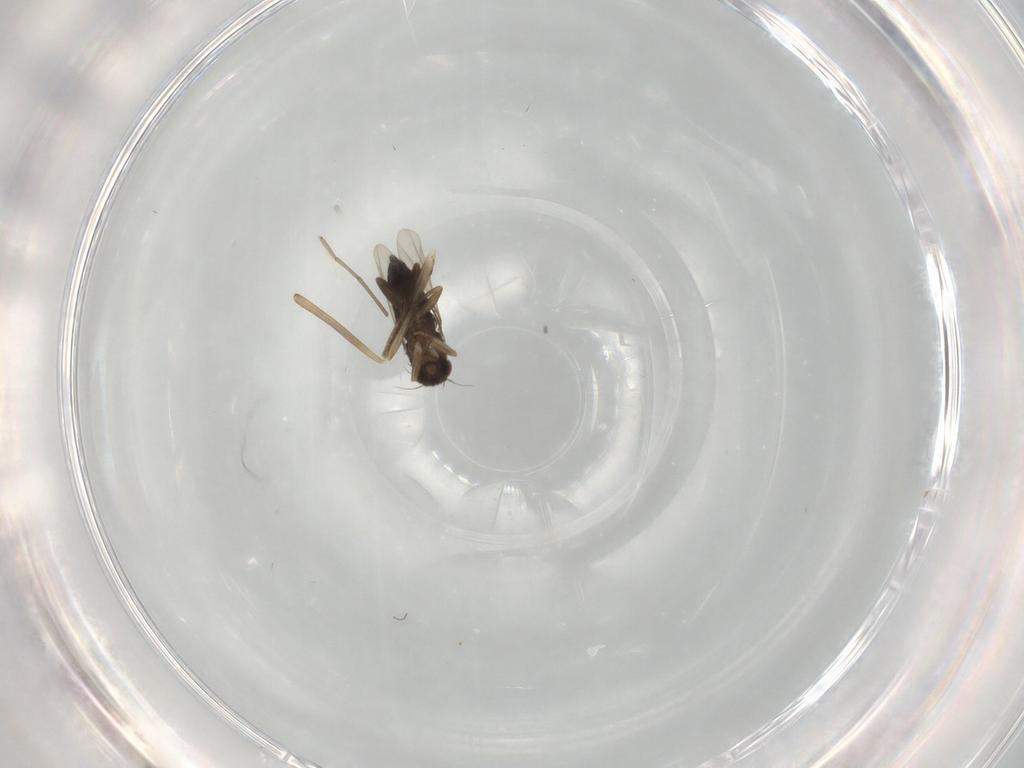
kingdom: Animalia
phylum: Arthropoda
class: Insecta
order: Diptera
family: Phoridae
